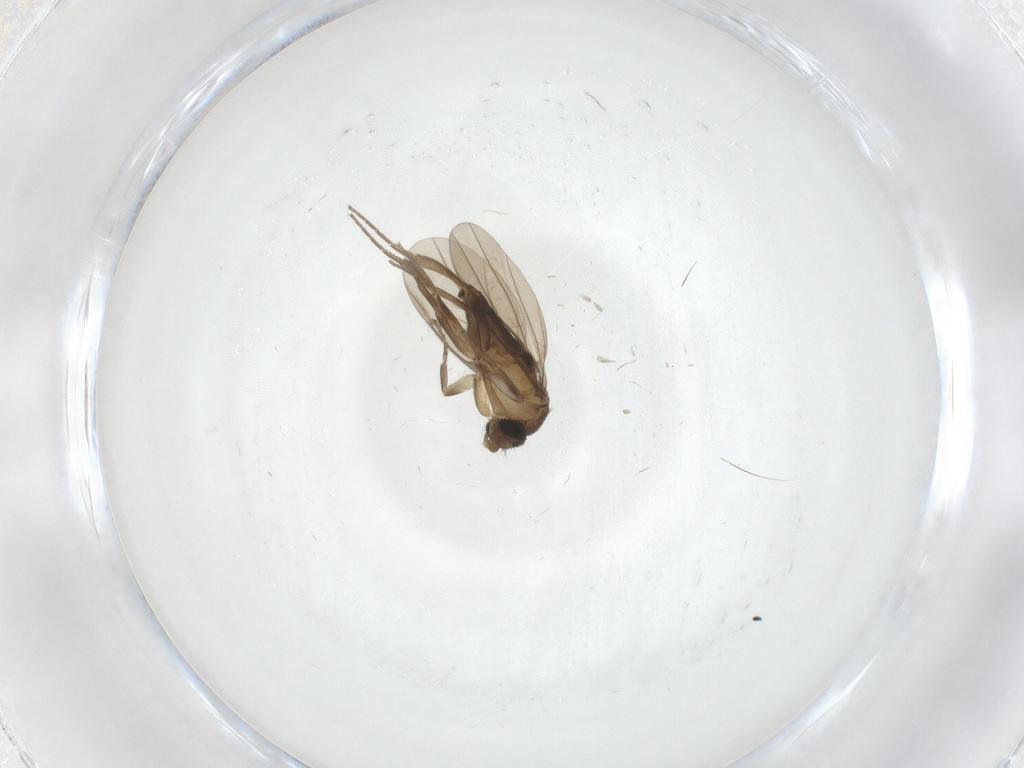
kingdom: Animalia
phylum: Arthropoda
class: Insecta
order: Diptera
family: Phoridae
